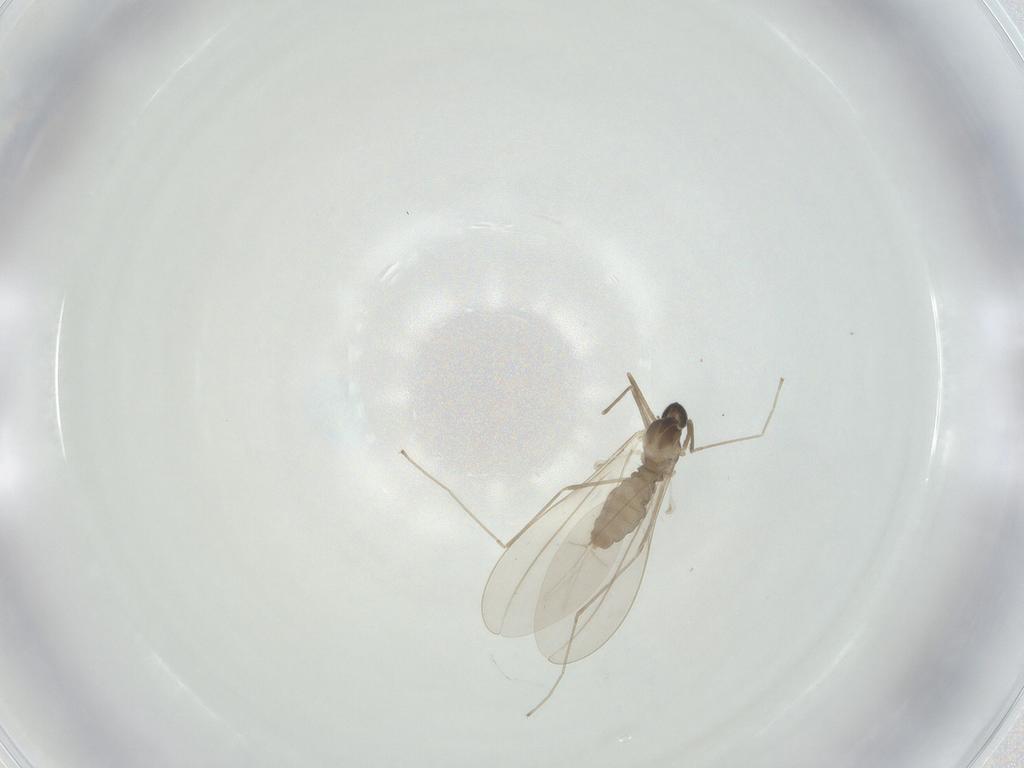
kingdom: Animalia
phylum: Arthropoda
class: Insecta
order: Diptera
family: Cecidomyiidae
